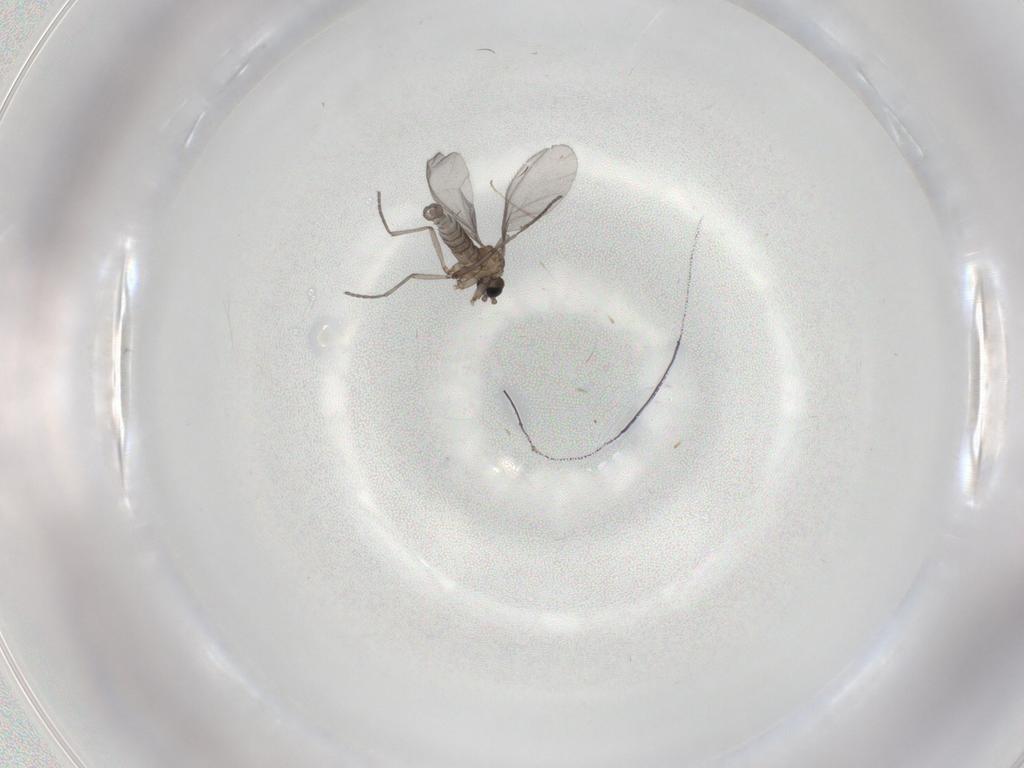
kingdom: Animalia
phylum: Arthropoda
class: Insecta
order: Diptera
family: Sciaridae
